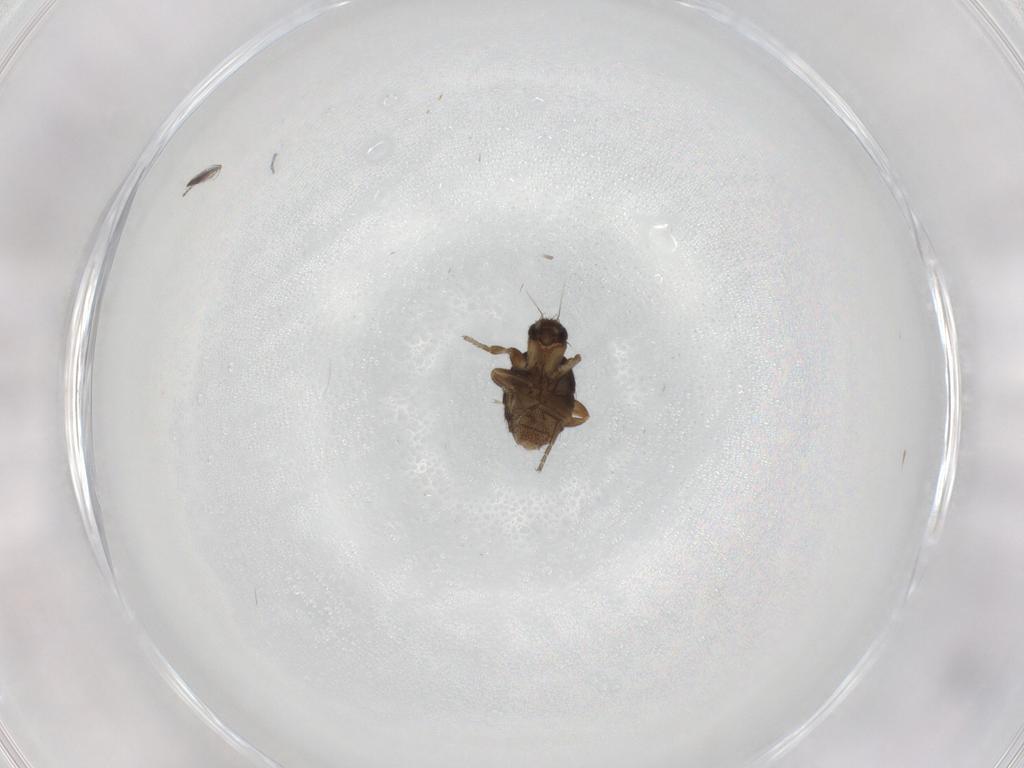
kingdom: Animalia
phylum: Arthropoda
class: Insecta
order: Diptera
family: Phoridae
